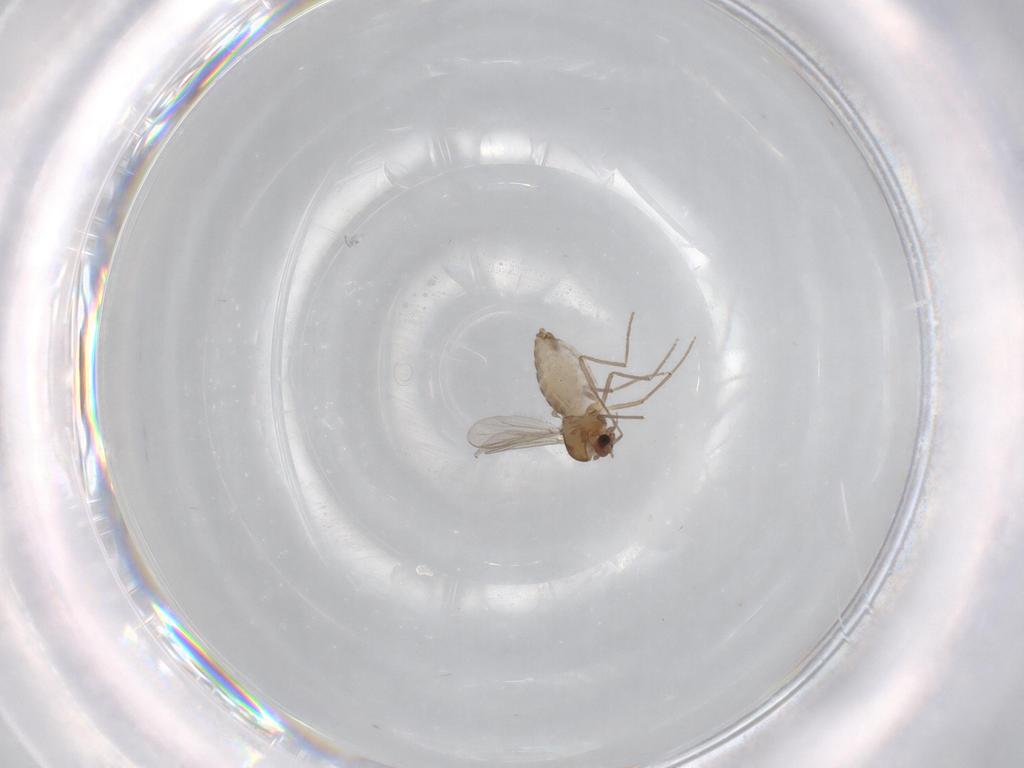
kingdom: Animalia
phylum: Arthropoda
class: Insecta
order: Diptera
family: Chironomidae
